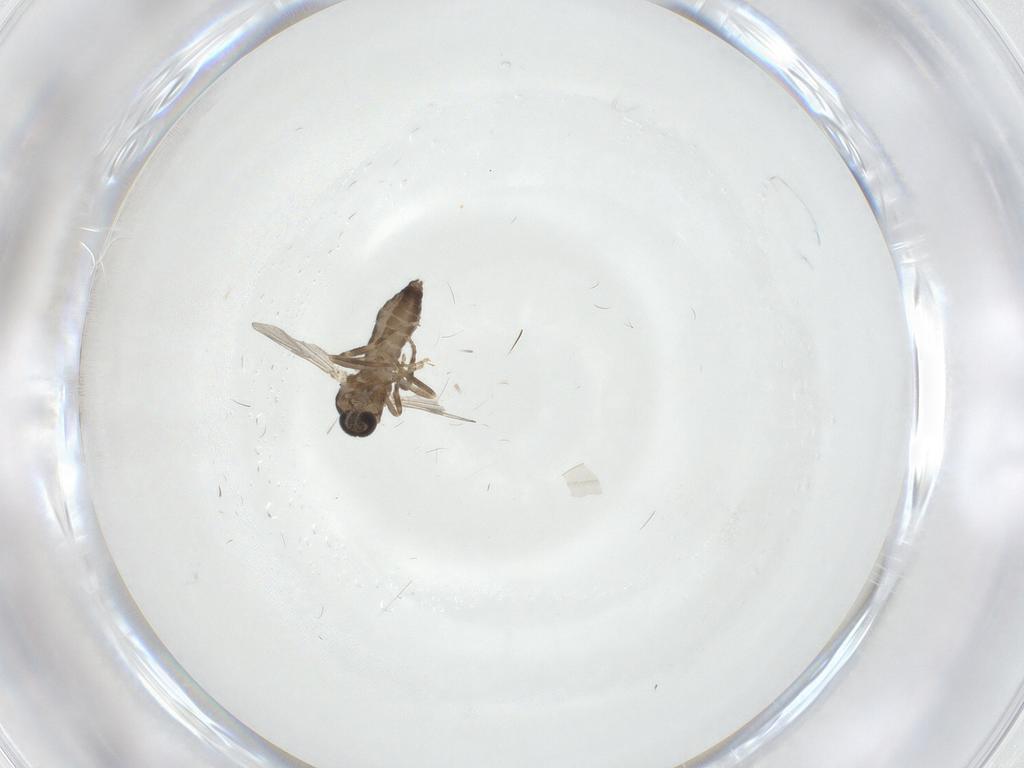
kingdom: Animalia
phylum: Arthropoda
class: Insecta
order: Diptera
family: Ceratopogonidae
